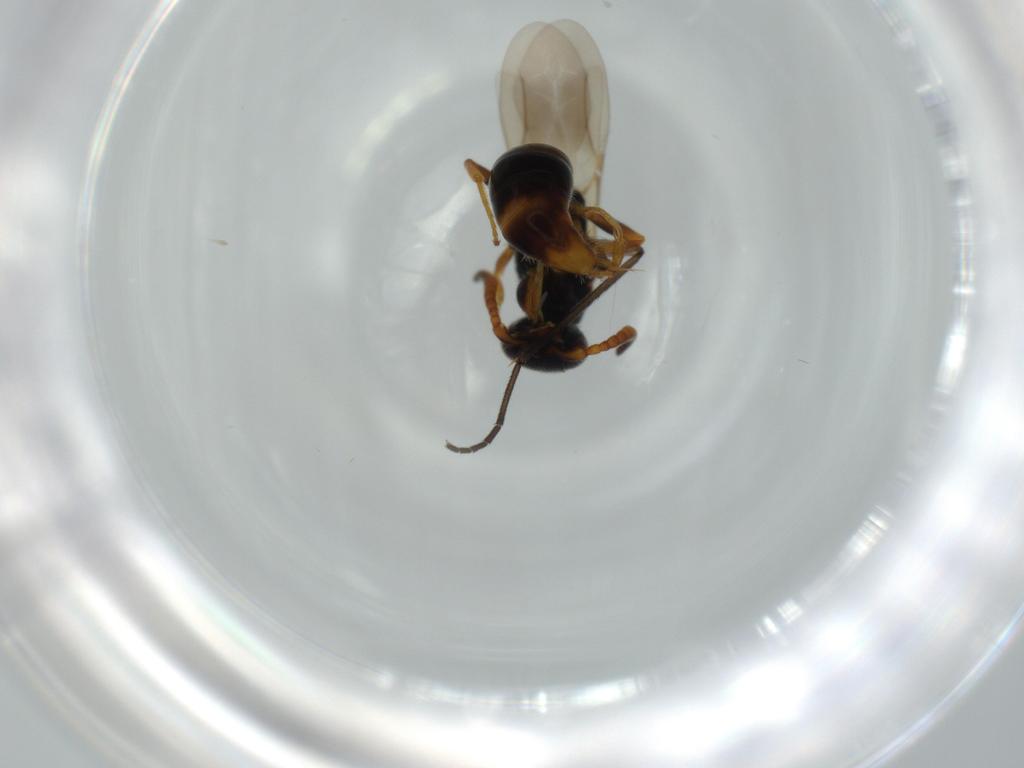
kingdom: Animalia
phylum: Arthropoda
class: Insecta
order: Hymenoptera
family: Bethylidae
